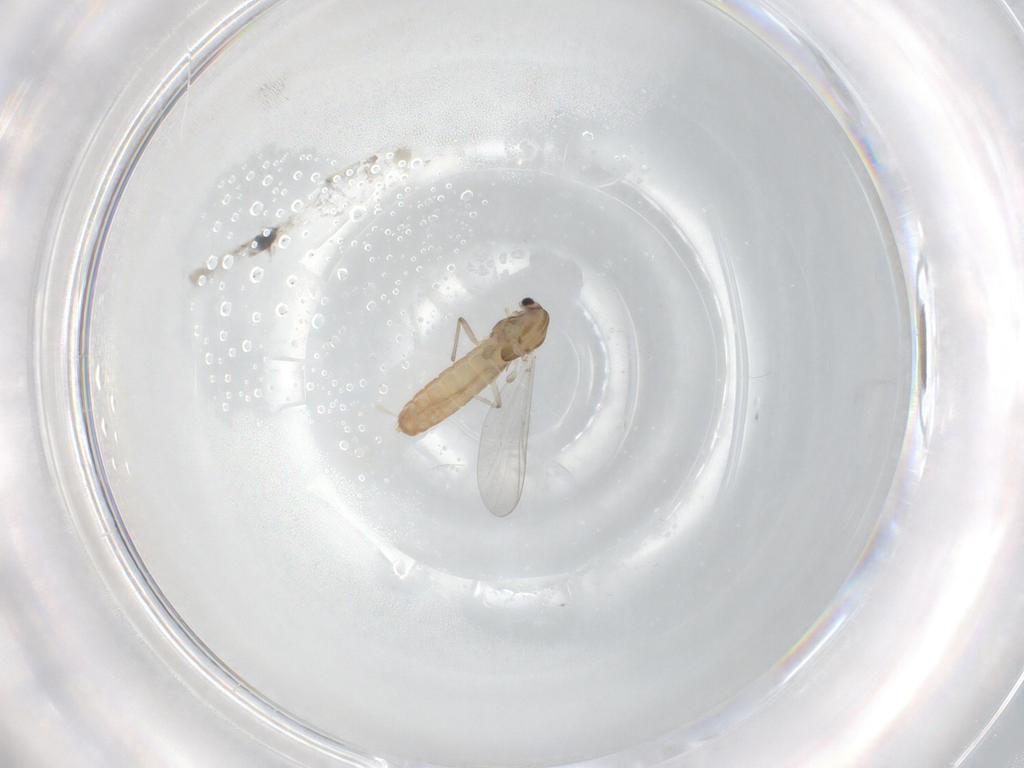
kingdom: Animalia
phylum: Arthropoda
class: Insecta
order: Diptera
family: Chironomidae
